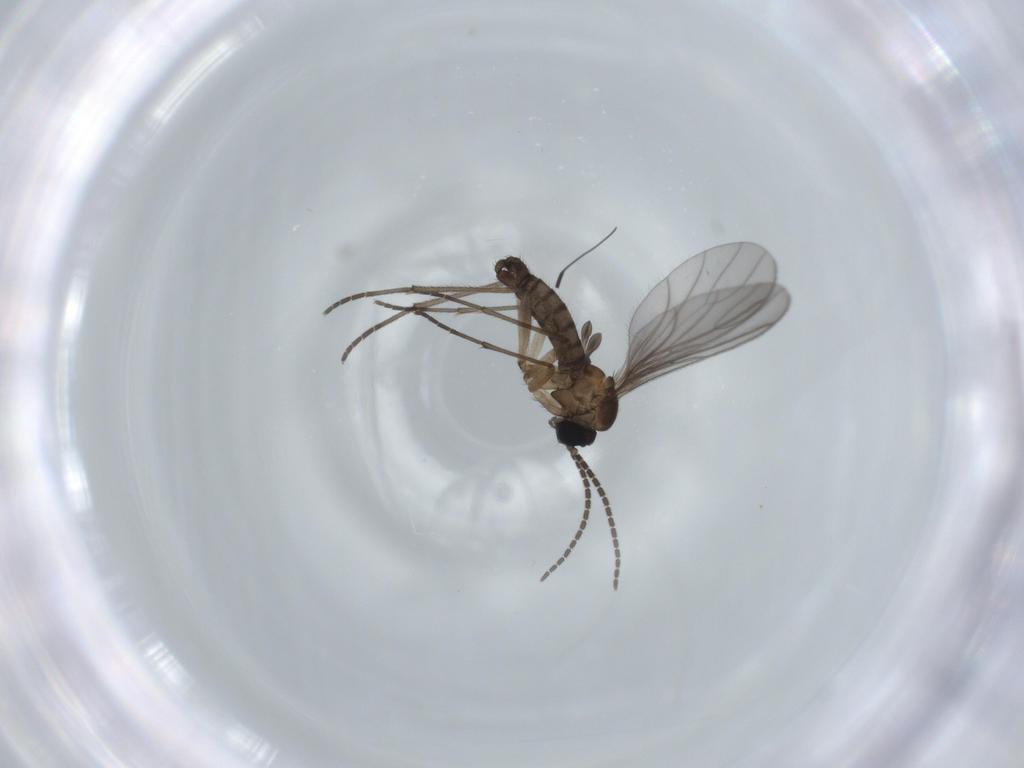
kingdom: Animalia
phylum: Arthropoda
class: Insecta
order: Diptera
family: Sciaridae
